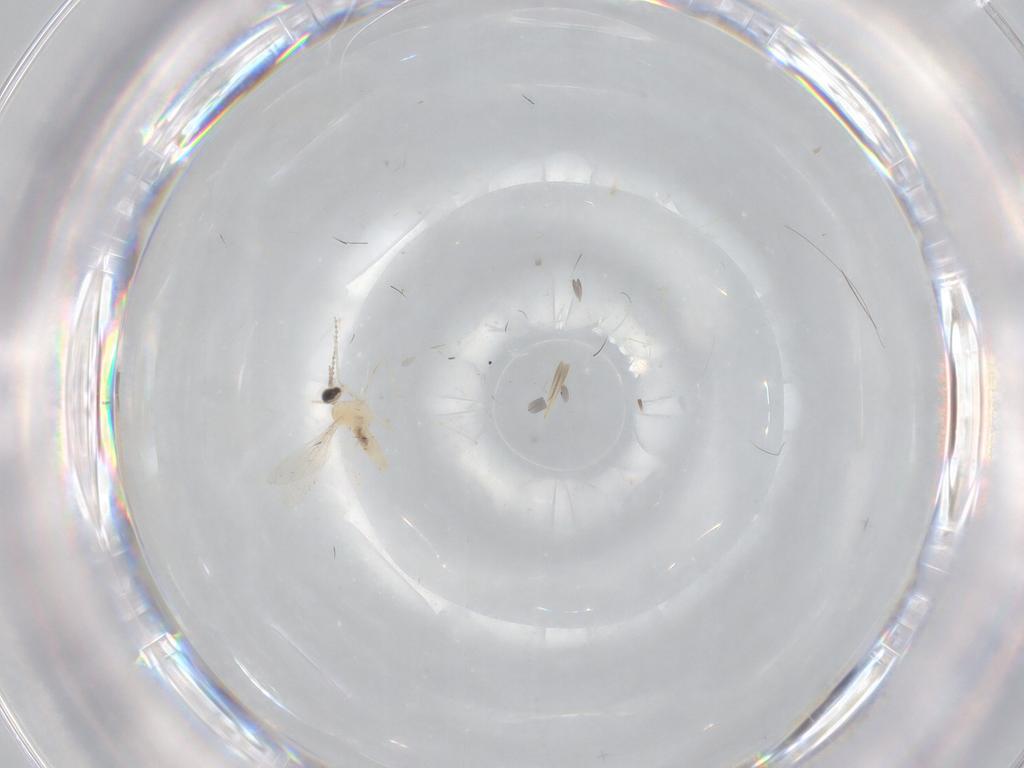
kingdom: Animalia
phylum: Arthropoda
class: Insecta
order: Diptera
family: Cecidomyiidae
